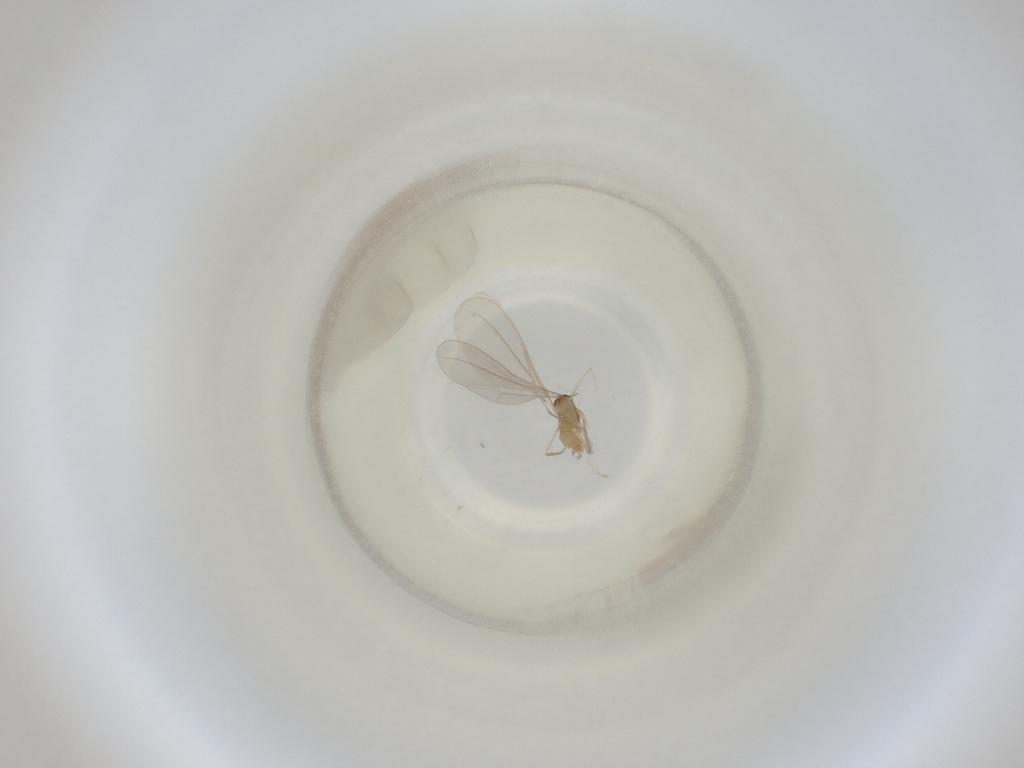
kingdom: Animalia
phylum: Arthropoda
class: Insecta
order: Diptera
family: Cecidomyiidae
